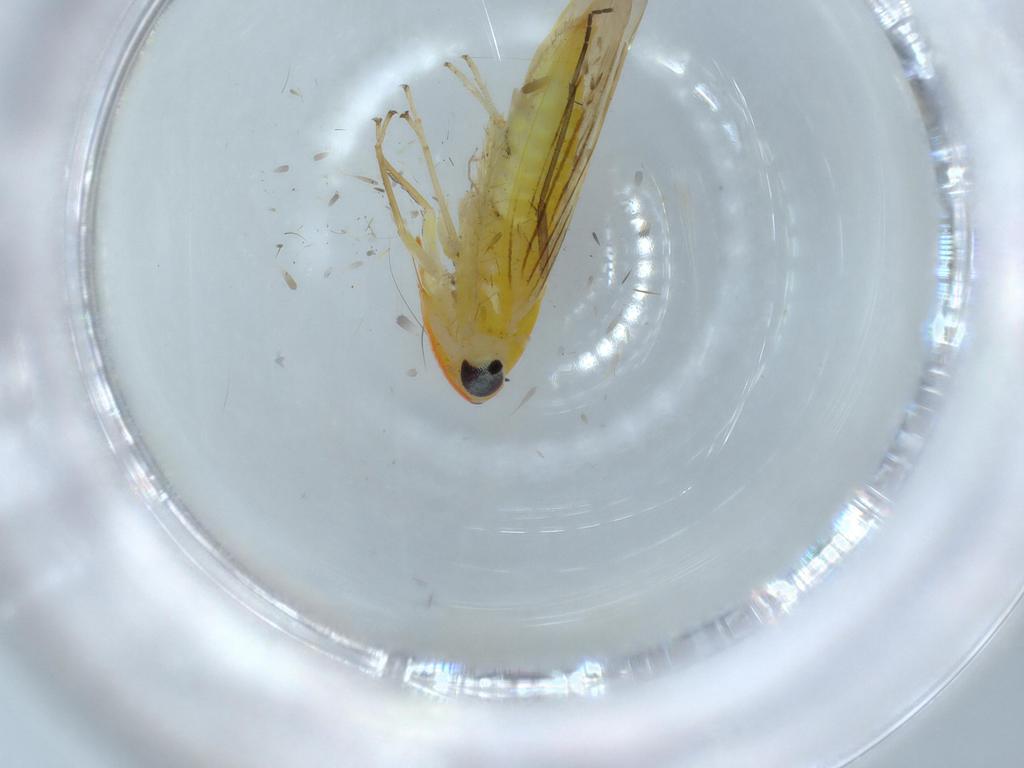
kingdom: Animalia
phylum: Arthropoda
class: Insecta
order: Hemiptera
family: Cicadellidae
